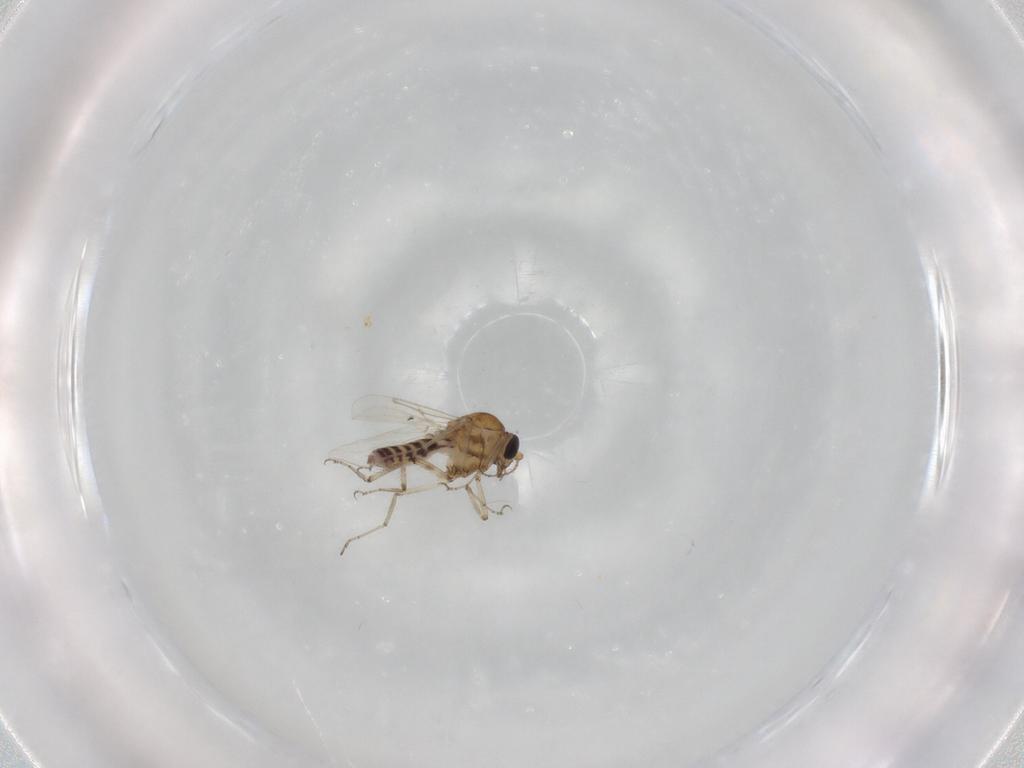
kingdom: Animalia
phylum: Arthropoda
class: Insecta
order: Diptera
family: Ceratopogonidae
